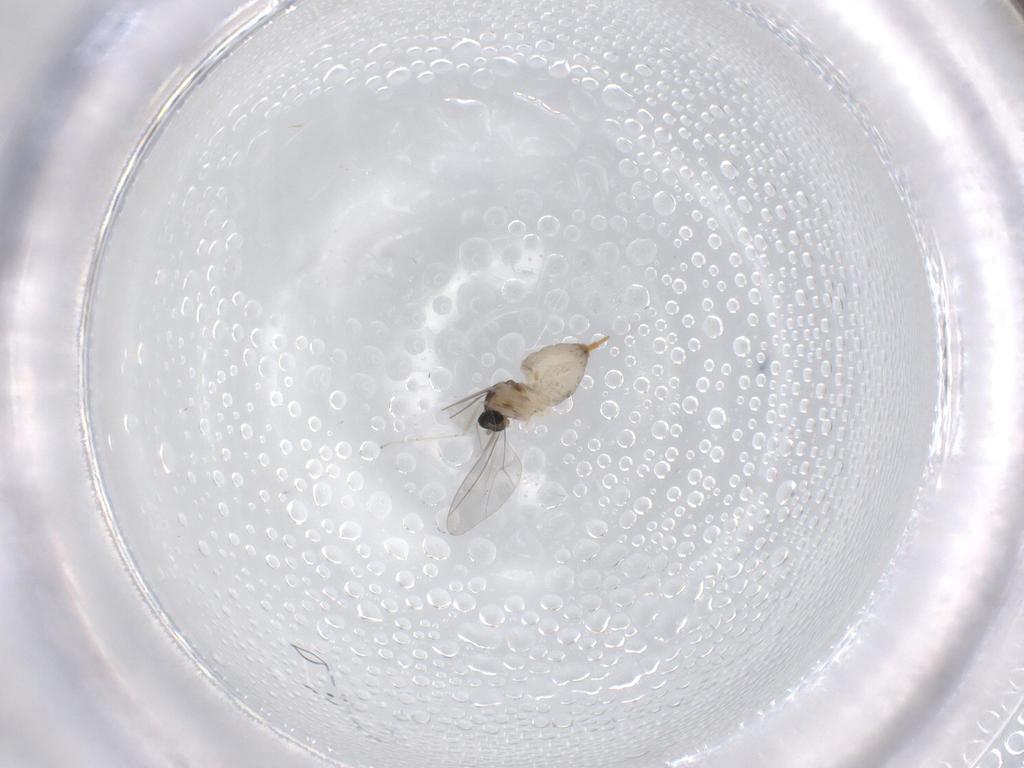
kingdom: Animalia
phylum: Arthropoda
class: Insecta
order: Diptera
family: Cecidomyiidae
